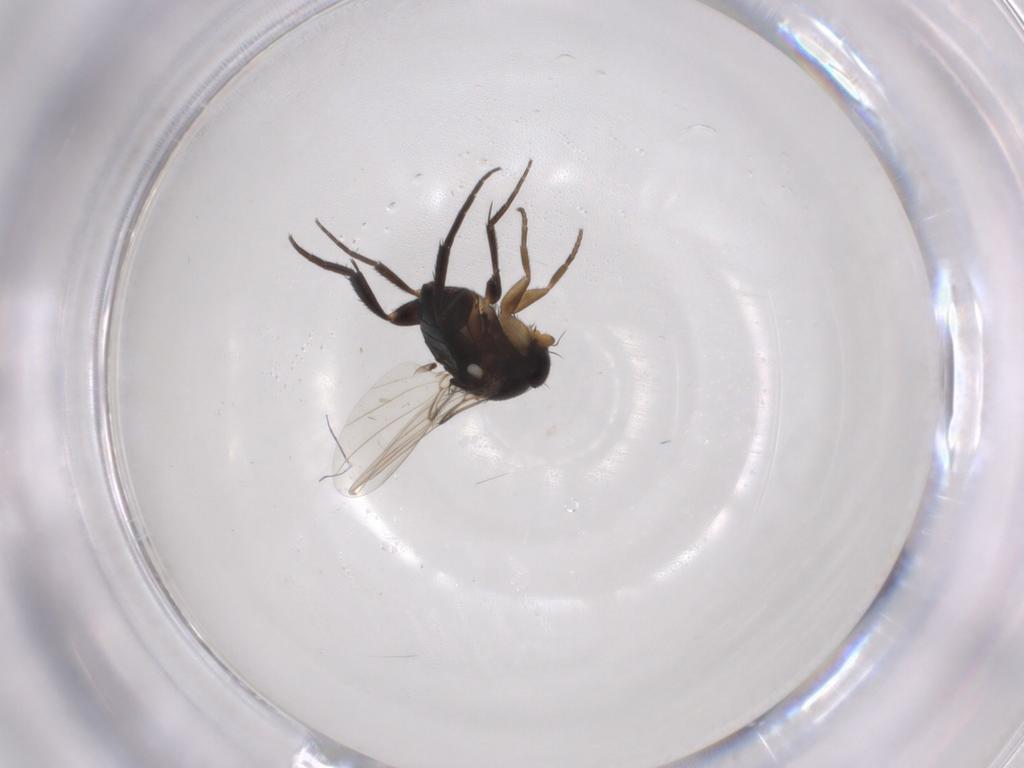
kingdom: Animalia
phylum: Arthropoda
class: Insecta
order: Diptera
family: Phoridae
